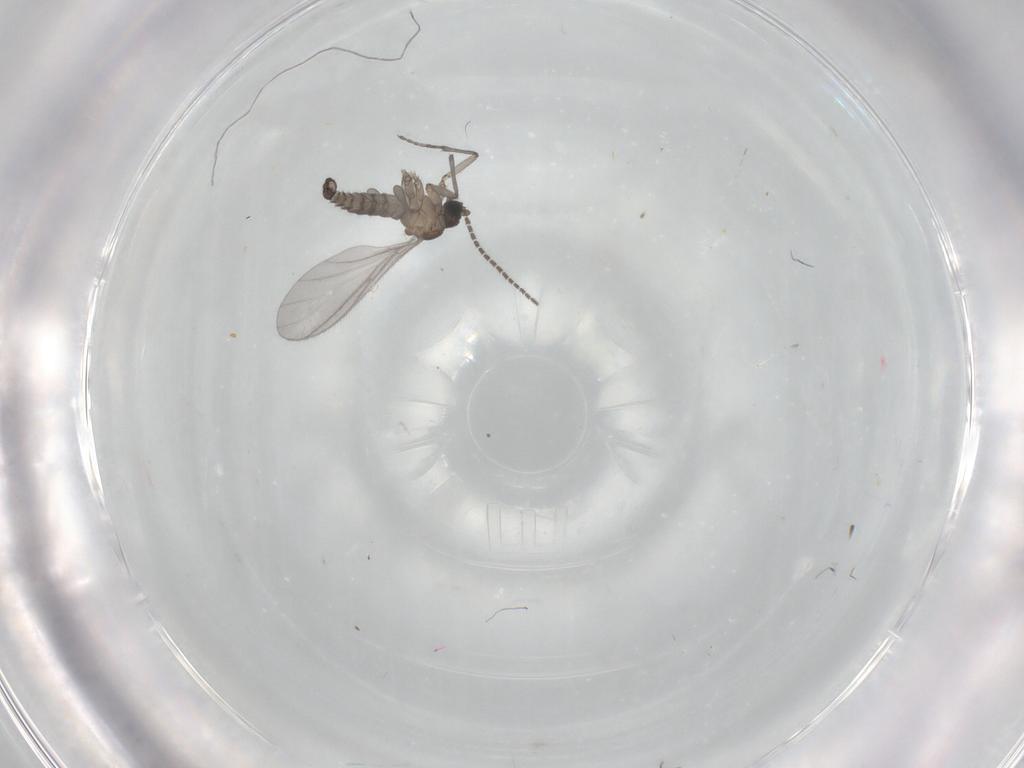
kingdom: Animalia
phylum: Arthropoda
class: Insecta
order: Diptera
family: Sciaridae
